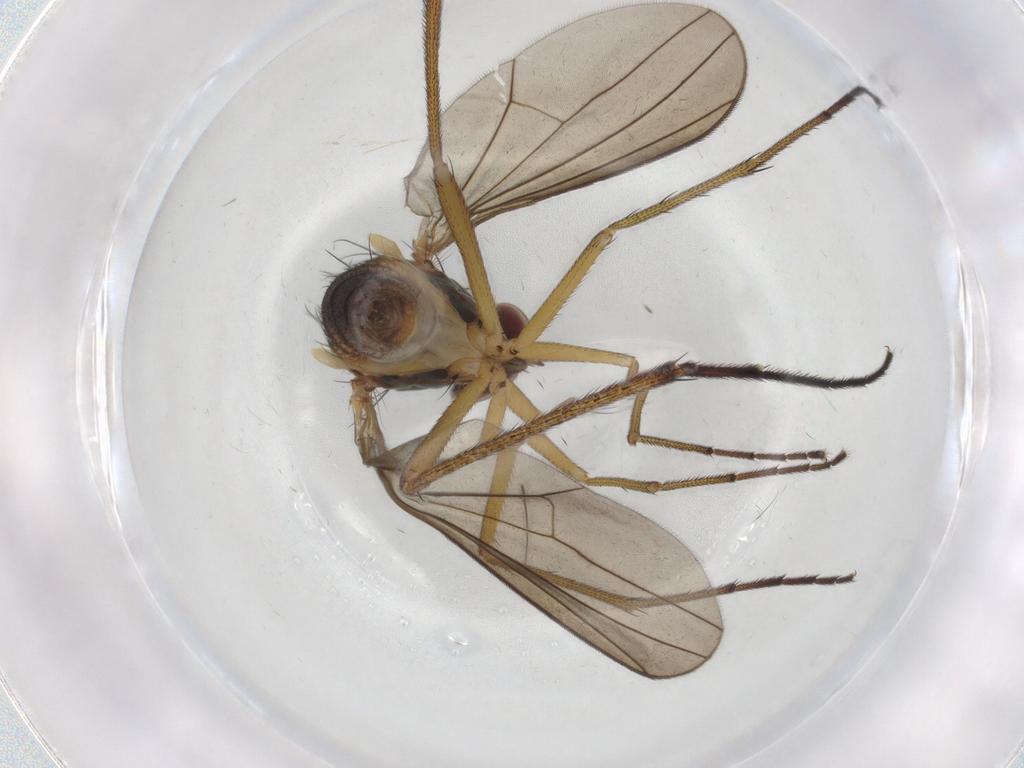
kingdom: Animalia
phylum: Arthropoda
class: Insecta
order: Diptera
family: Dolichopodidae
